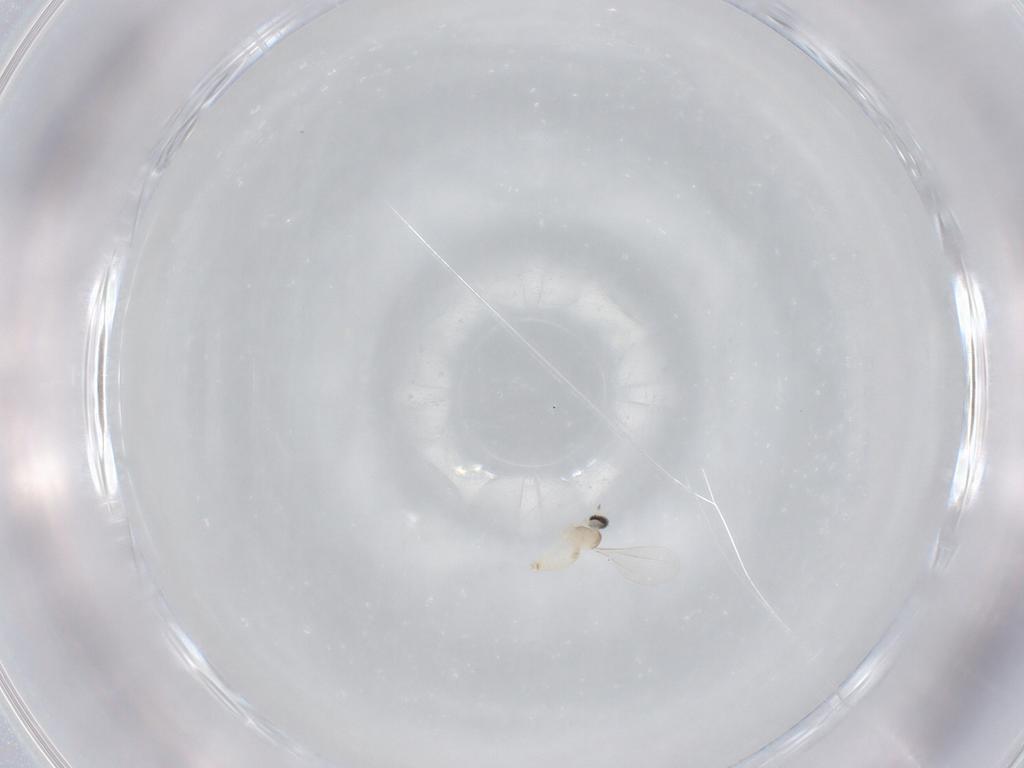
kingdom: Animalia
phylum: Arthropoda
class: Insecta
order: Diptera
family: Cecidomyiidae
